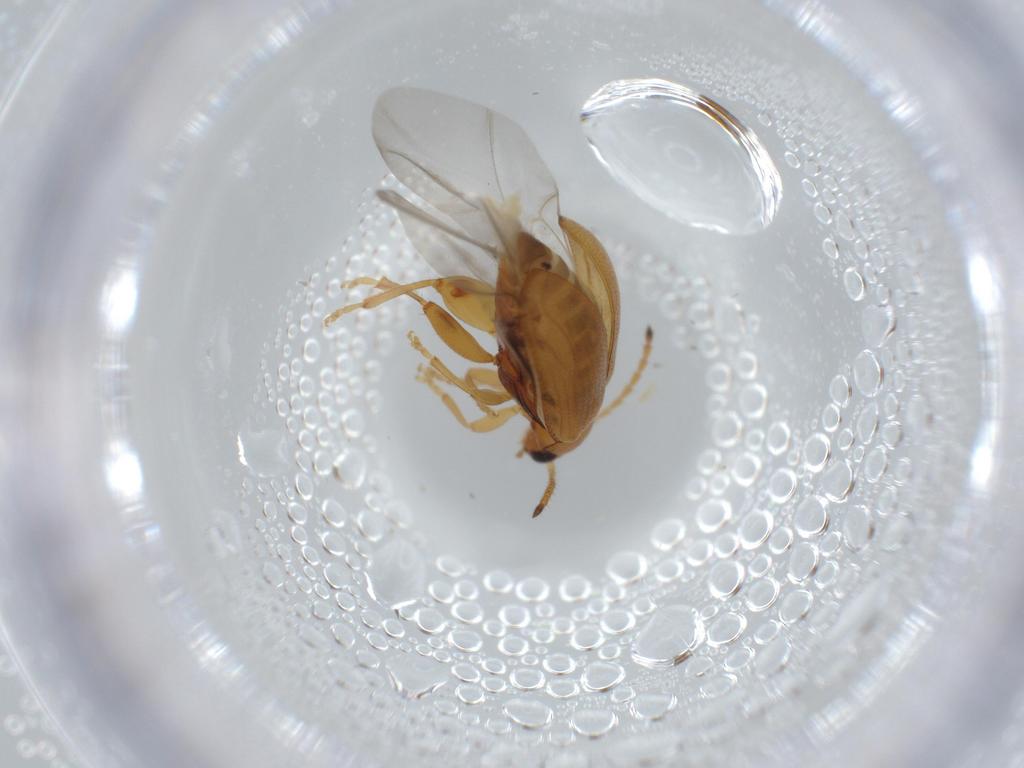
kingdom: Animalia
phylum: Arthropoda
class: Insecta
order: Coleoptera
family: Chrysomelidae
